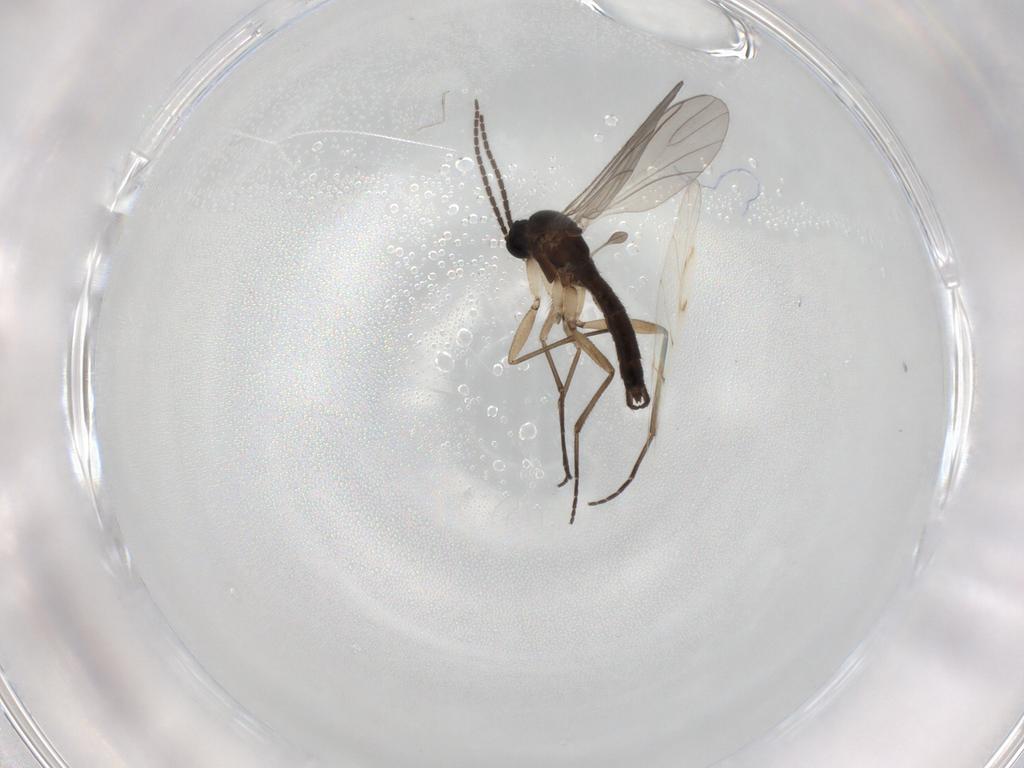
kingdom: Animalia
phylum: Arthropoda
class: Insecta
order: Diptera
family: Sciaridae
